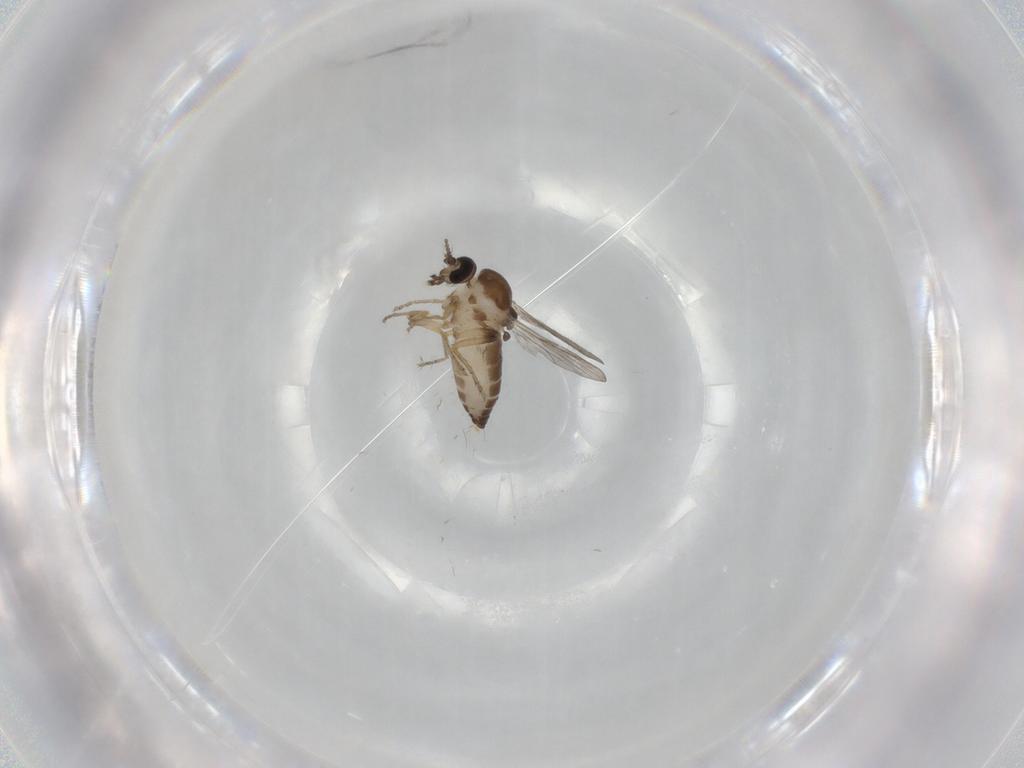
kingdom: Animalia
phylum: Arthropoda
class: Insecta
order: Diptera
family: Ceratopogonidae
